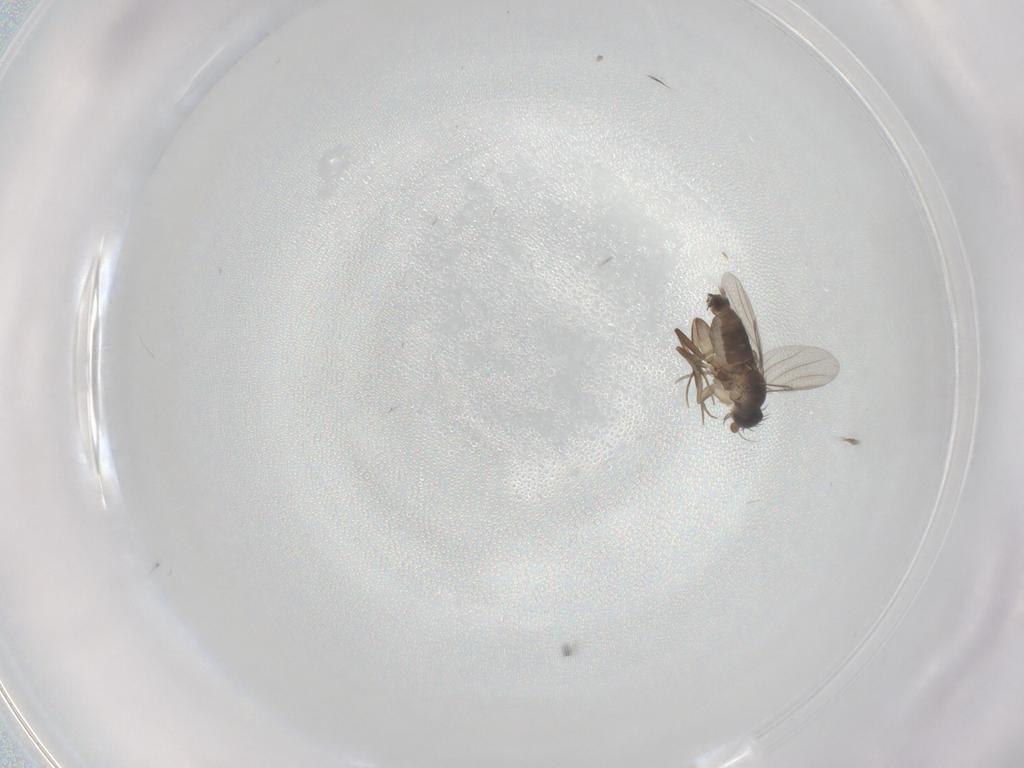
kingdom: Animalia
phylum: Arthropoda
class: Insecta
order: Diptera
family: Phoridae
